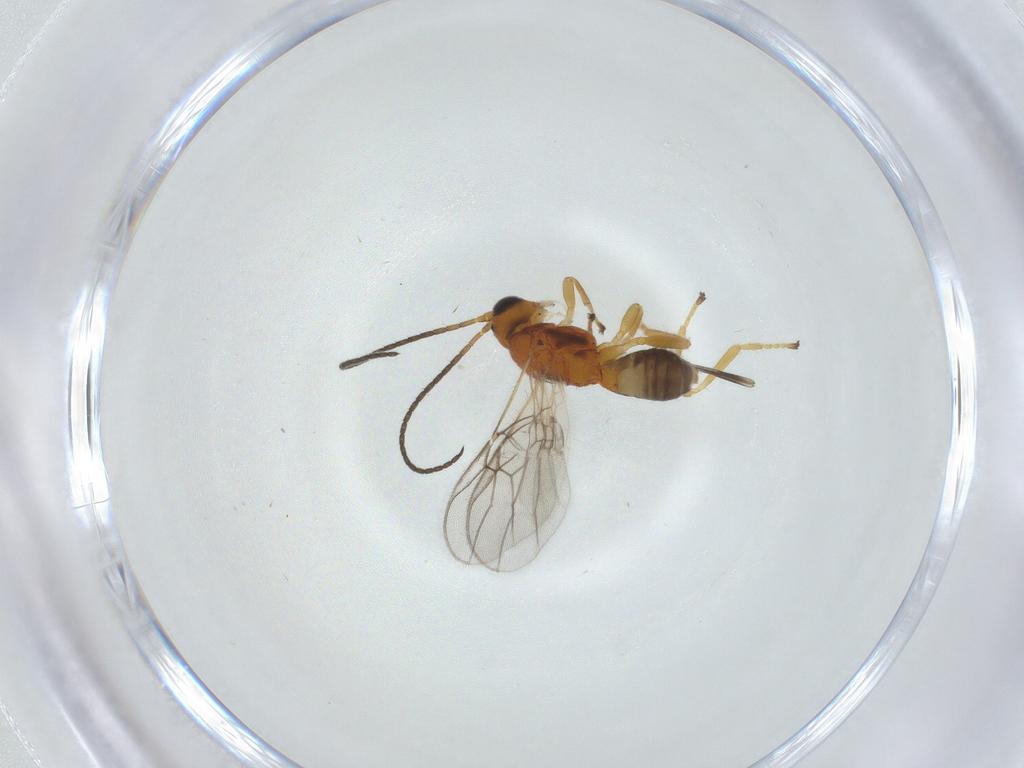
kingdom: Animalia
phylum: Arthropoda
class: Insecta
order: Hymenoptera
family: Braconidae
